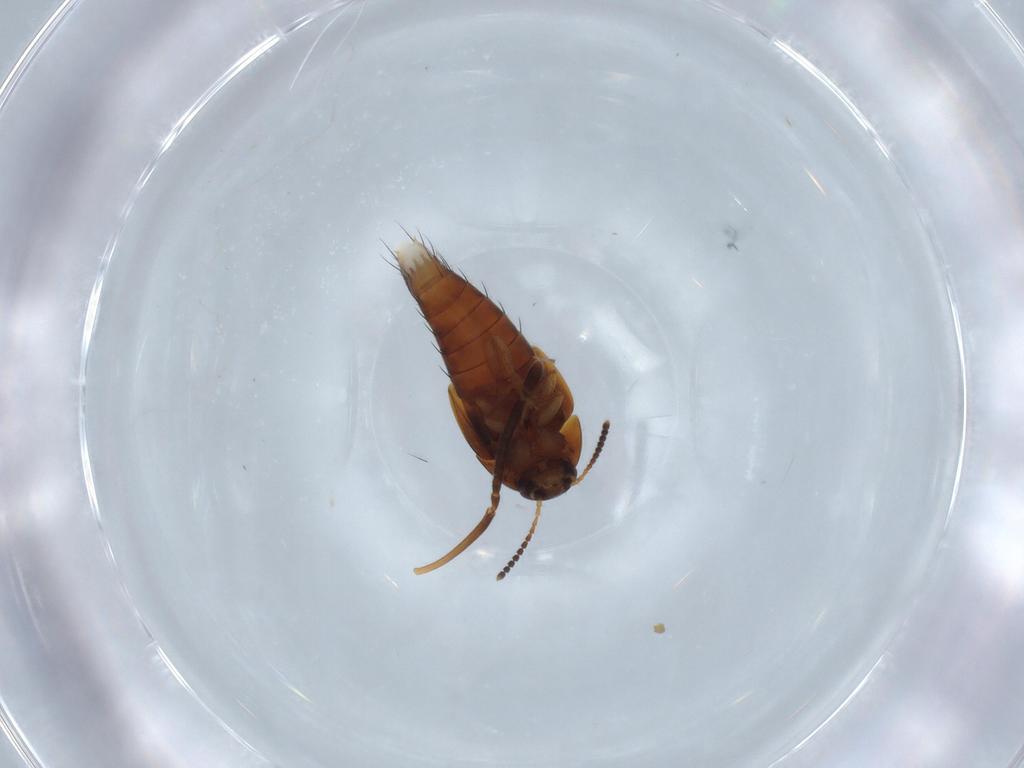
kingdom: Animalia
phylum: Arthropoda
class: Insecta
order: Coleoptera
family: Staphylinidae
